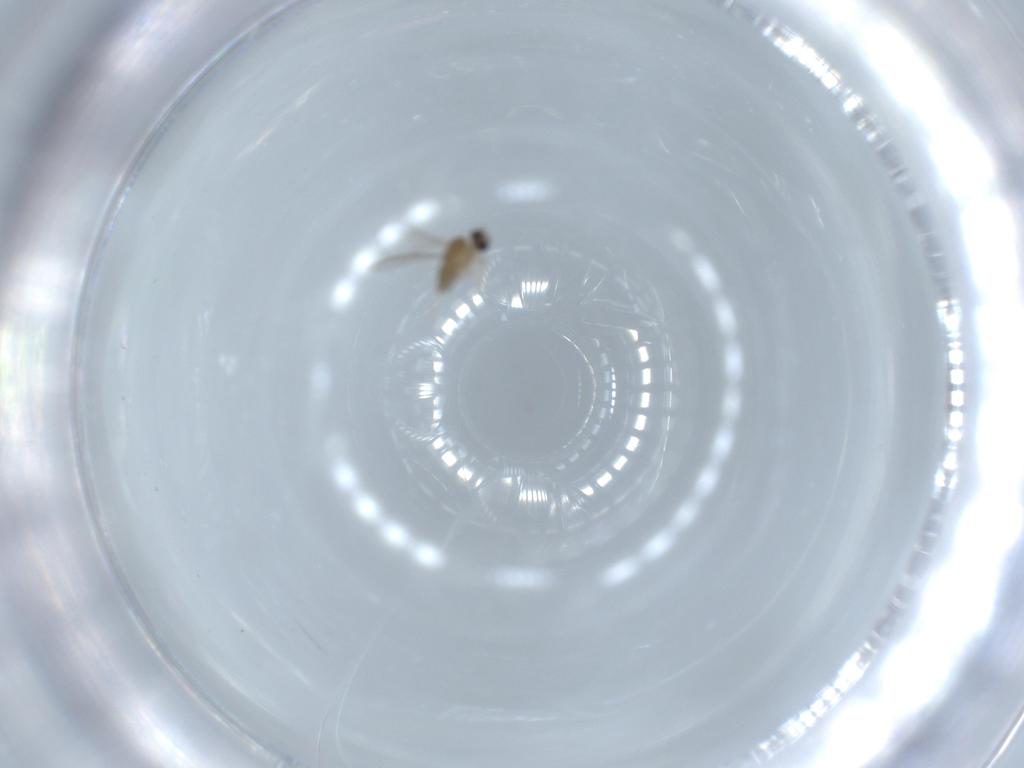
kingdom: Animalia
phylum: Arthropoda
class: Insecta
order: Diptera
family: Cecidomyiidae
